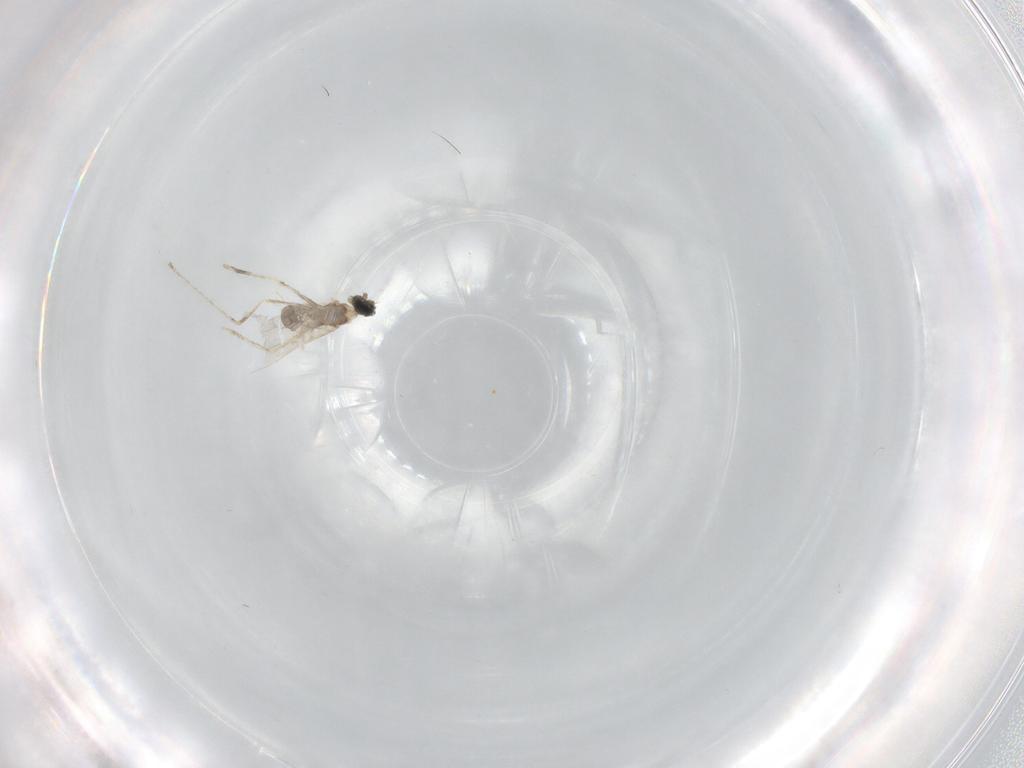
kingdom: Animalia
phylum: Arthropoda
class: Insecta
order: Diptera
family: Cecidomyiidae
